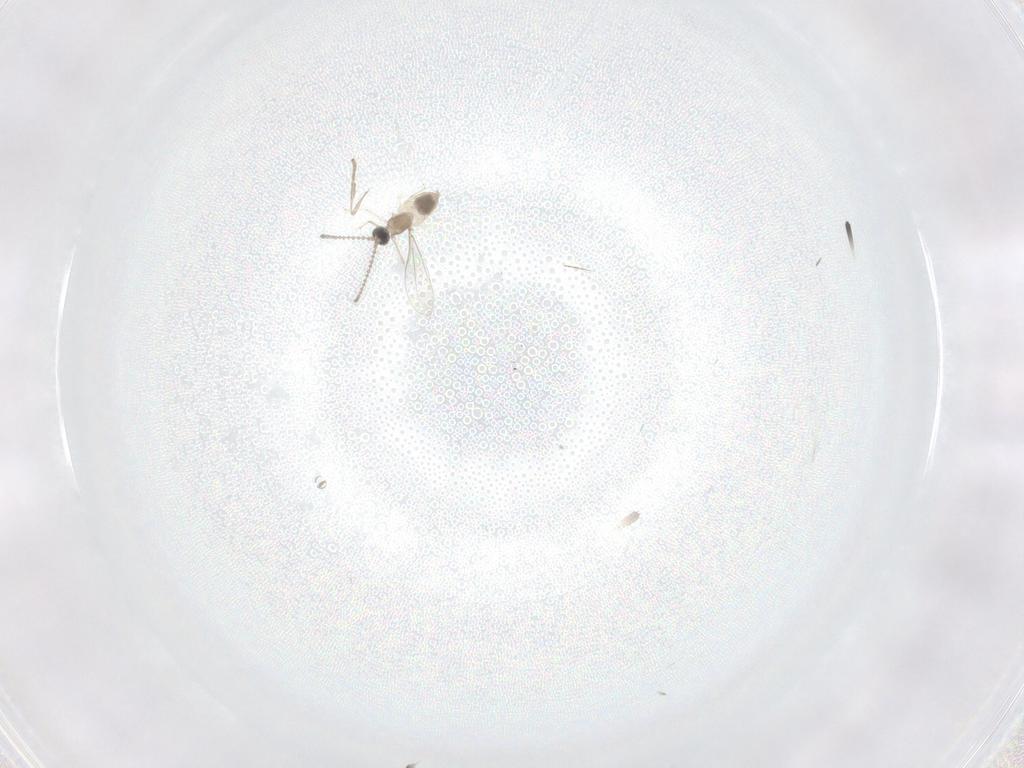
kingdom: Animalia
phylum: Arthropoda
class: Insecta
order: Diptera
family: Cecidomyiidae
